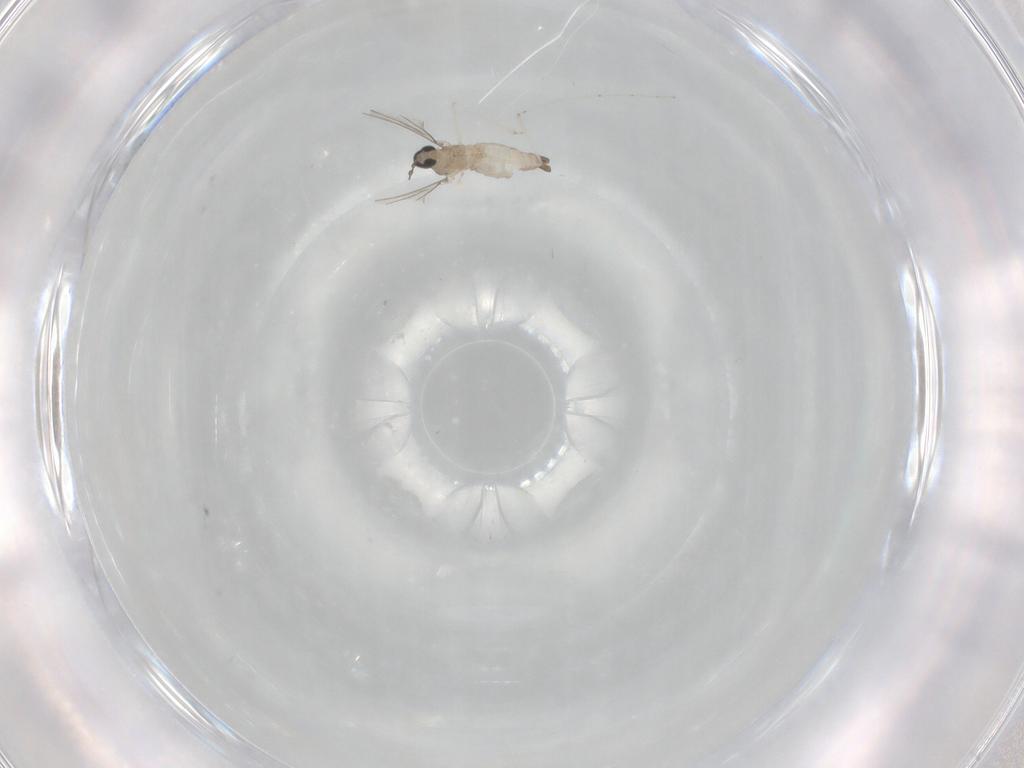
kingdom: Animalia
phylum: Arthropoda
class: Insecta
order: Diptera
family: Cecidomyiidae
